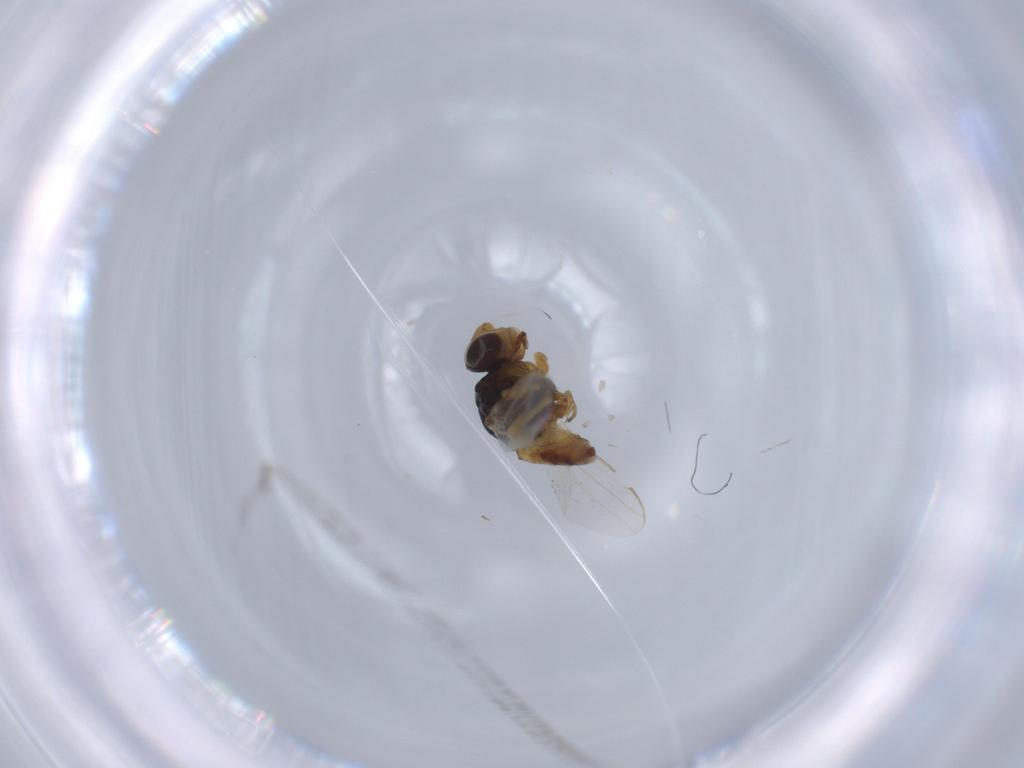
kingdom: Animalia
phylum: Arthropoda
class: Insecta
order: Diptera
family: Chloropidae
